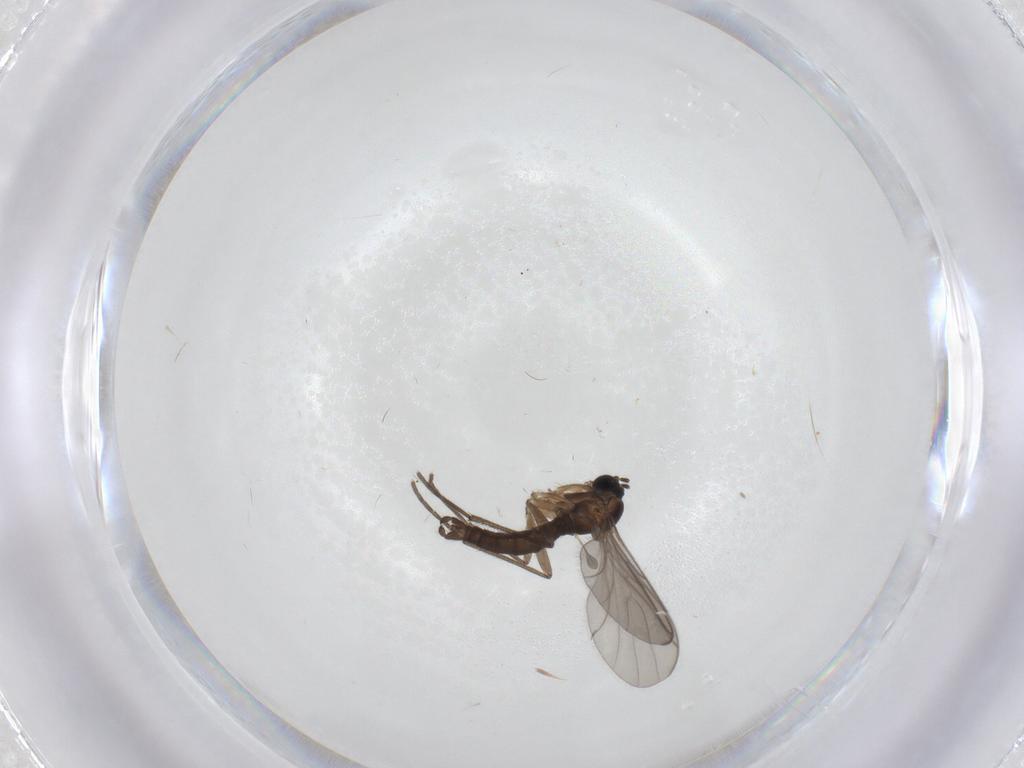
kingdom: Animalia
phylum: Arthropoda
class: Insecta
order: Diptera
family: Sciaridae
